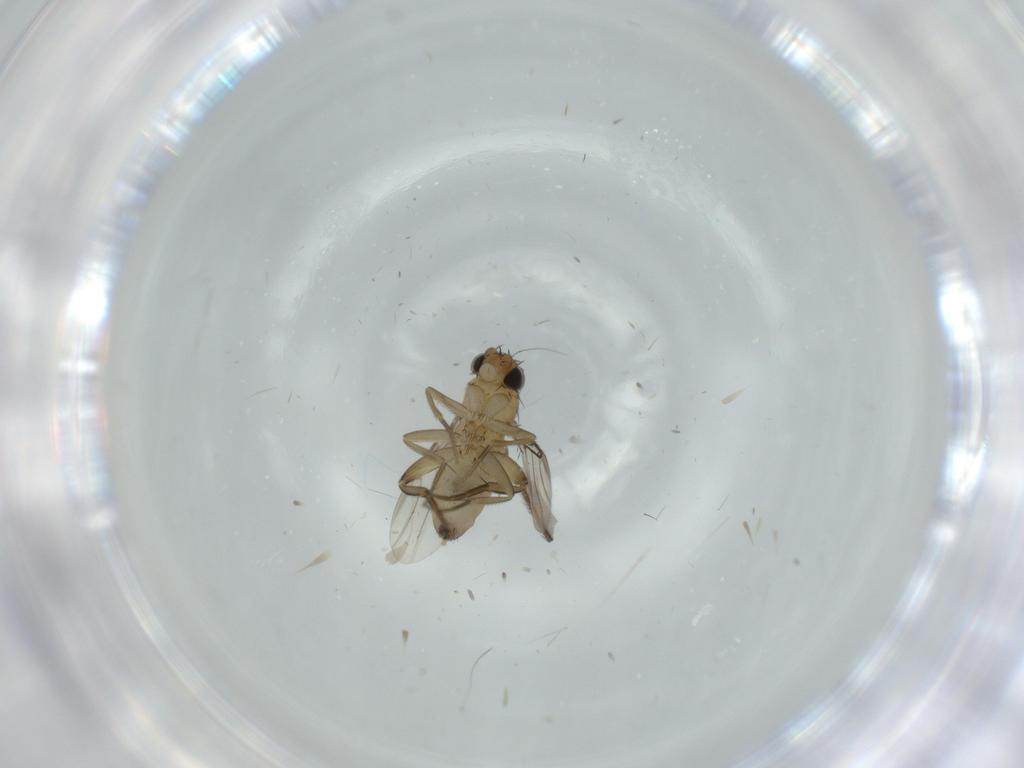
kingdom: Animalia
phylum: Arthropoda
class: Insecta
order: Diptera
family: Phoridae
